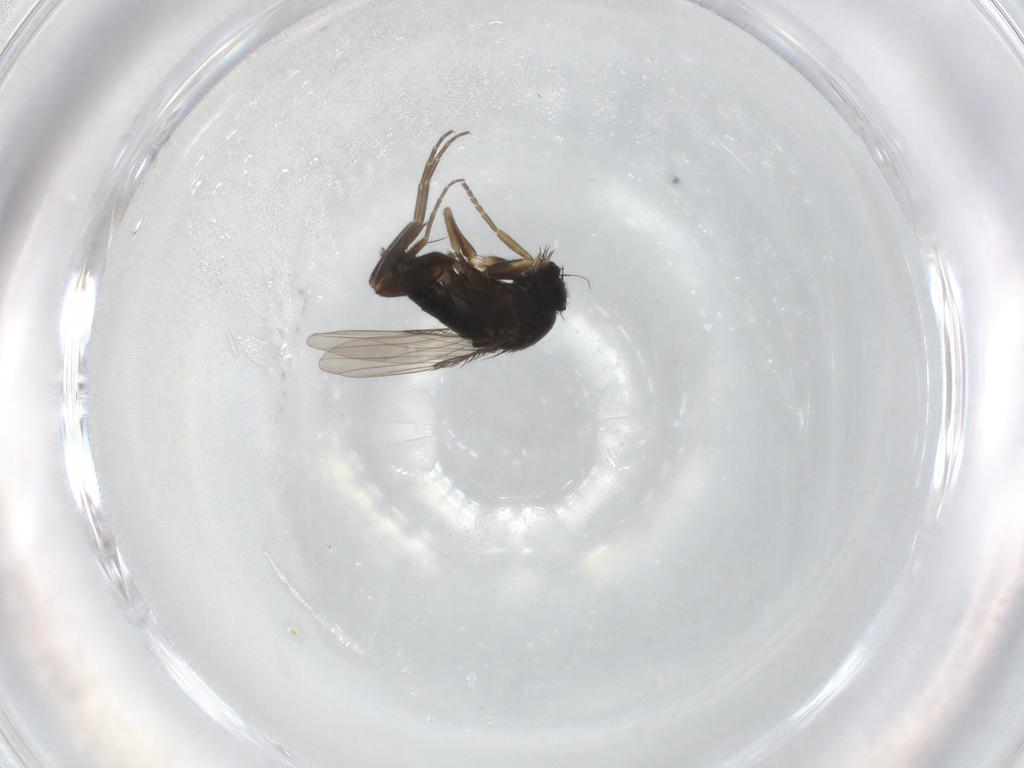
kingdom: Animalia
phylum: Arthropoda
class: Insecta
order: Diptera
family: Phoridae
